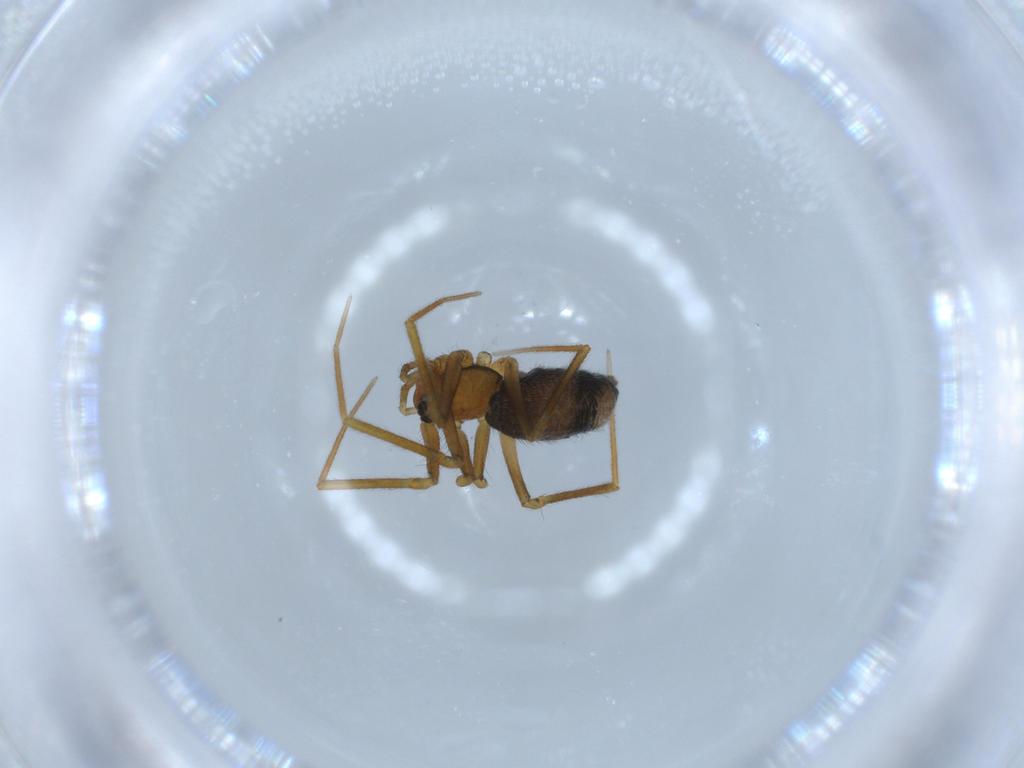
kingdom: Animalia
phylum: Arthropoda
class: Arachnida
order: Araneae
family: Linyphiidae
